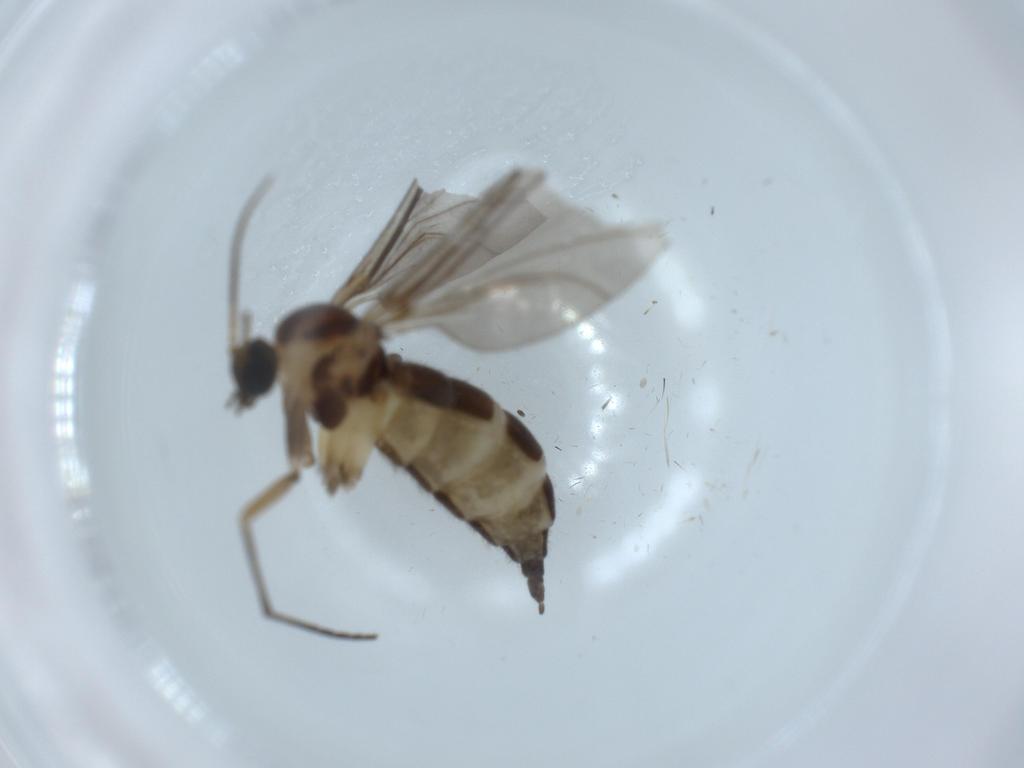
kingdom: Animalia
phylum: Arthropoda
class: Insecta
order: Diptera
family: Sciaridae
